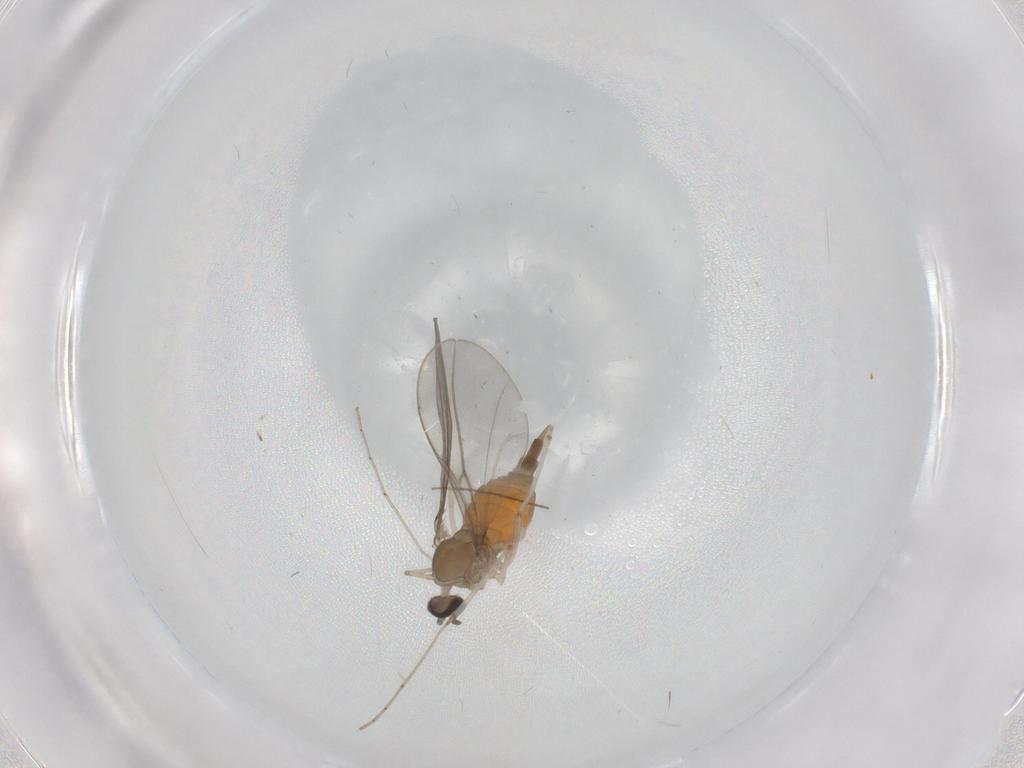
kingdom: Animalia
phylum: Arthropoda
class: Insecta
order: Diptera
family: Cecidomyiidae
